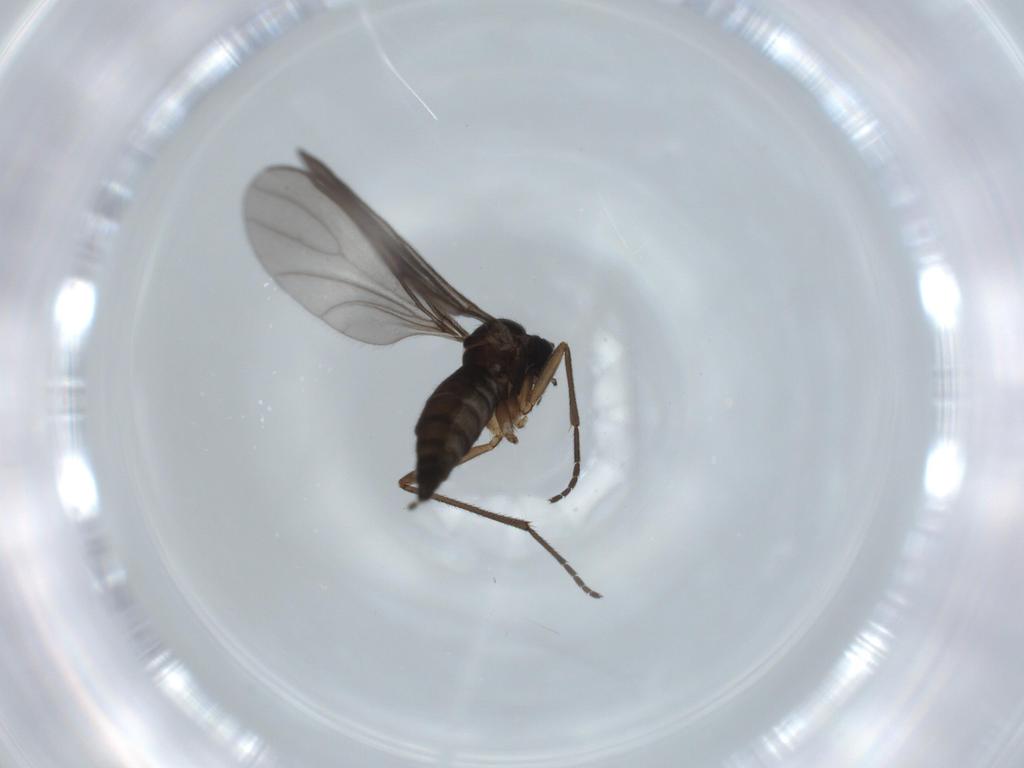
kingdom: Animalia
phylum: Arthropoda
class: Insecta
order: Diptera
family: Sciaridae
